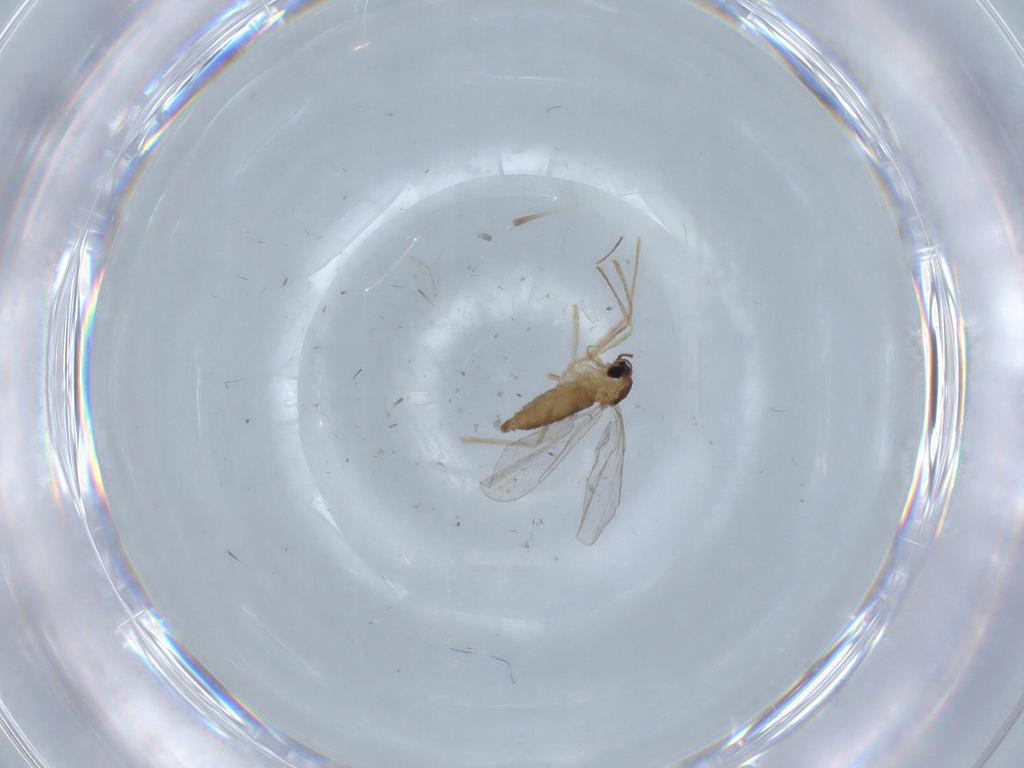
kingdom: Animalia
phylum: Arthropoda
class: Insecta
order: Diptera
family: Cecidomyiidae
